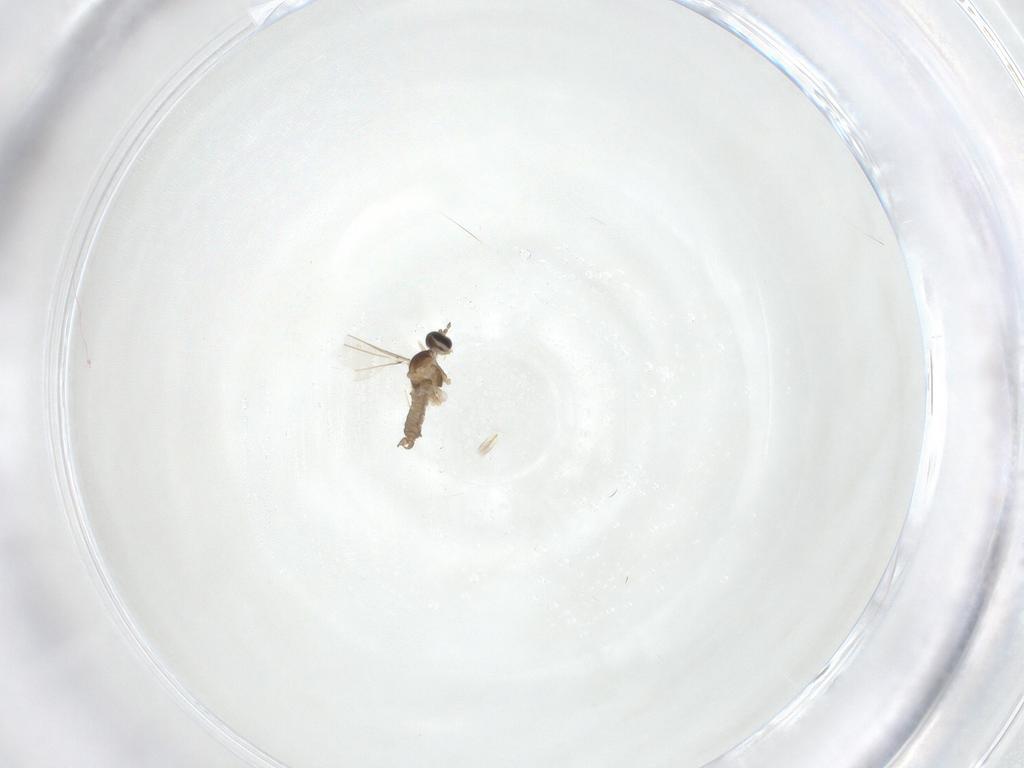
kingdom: Animalia
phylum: Arthropoda
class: Insecta
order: Diptera
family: Cecidomyiidae
